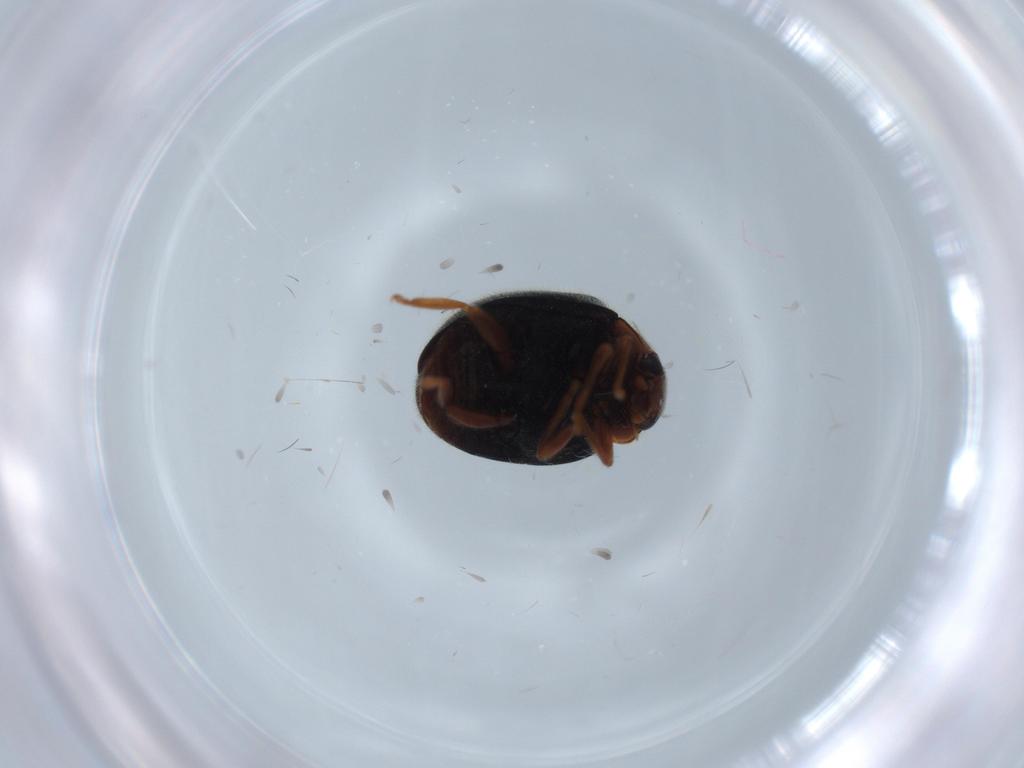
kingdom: Animalia
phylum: Arthropoda
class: Insecta
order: Coleoptera
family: Coccinellidae
